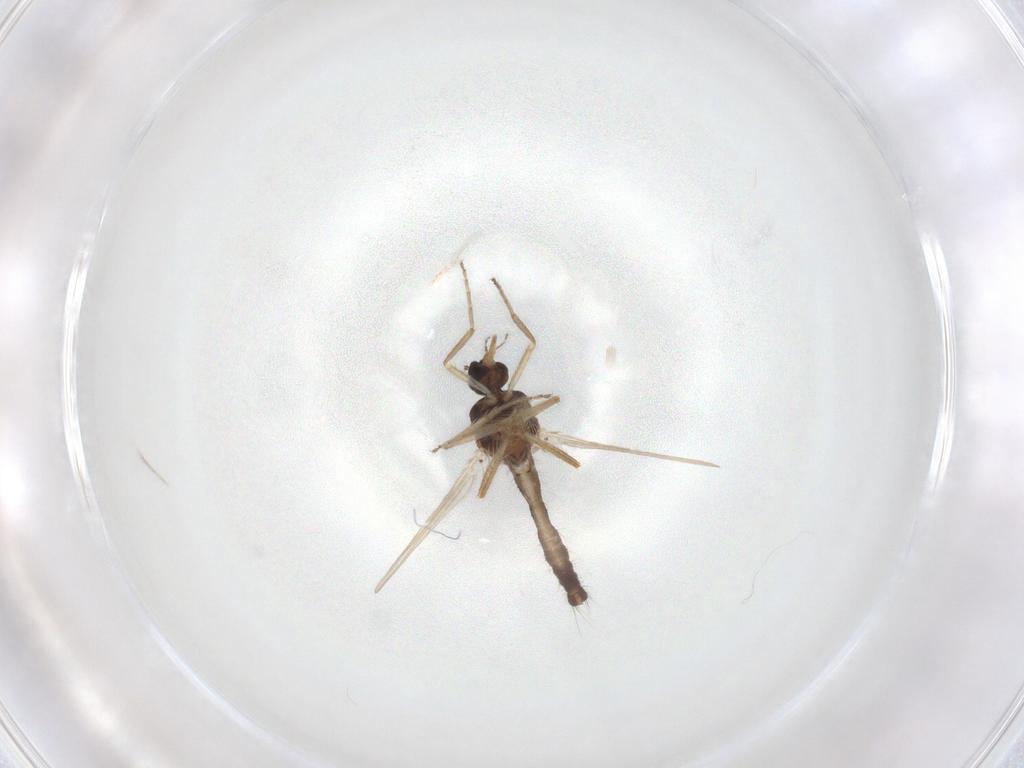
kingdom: Animalia
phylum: Arthropoda
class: Insecta
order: Diptera
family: Ceratopogonidae
